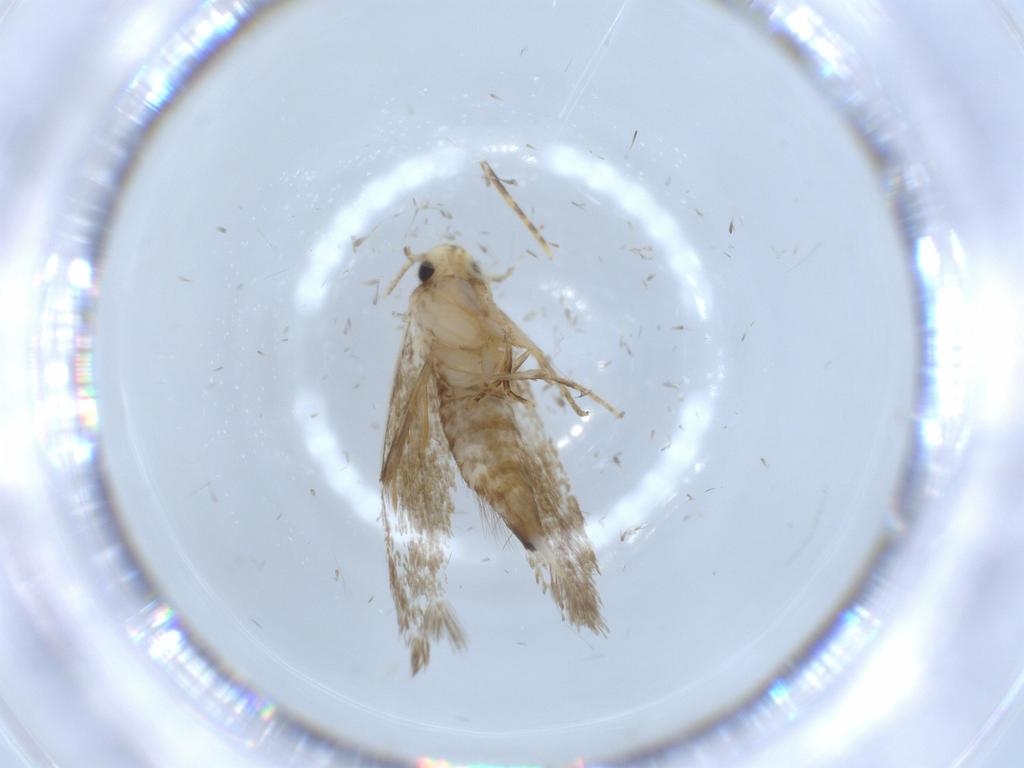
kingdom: Animalia
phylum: Arthropoda
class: Insecta
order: Lepidoptera
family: Tineidae
